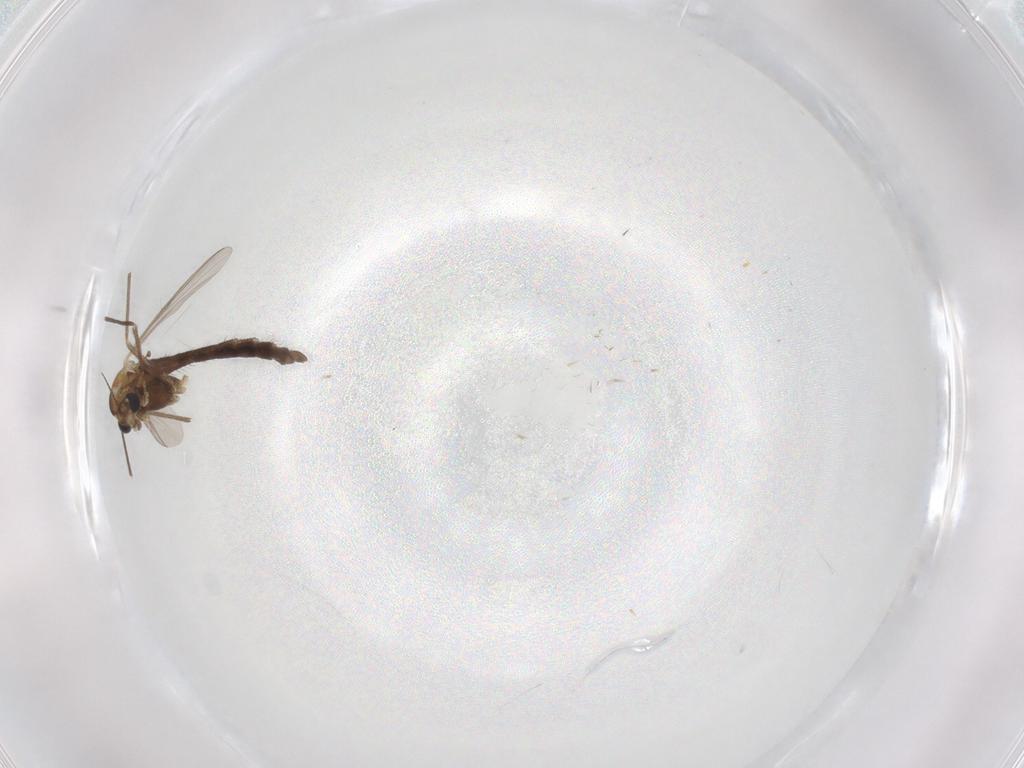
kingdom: Animalia
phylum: Arthropoda
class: Insecta
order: Diptera
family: Chironomidae
